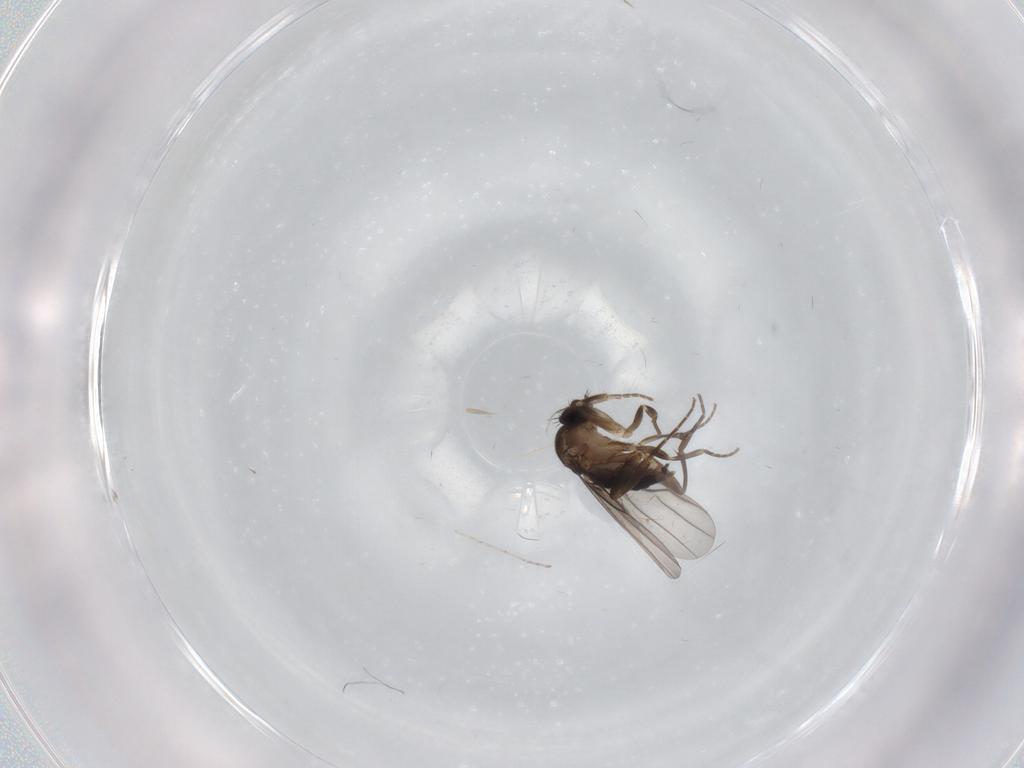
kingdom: Animalia
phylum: Arthropoda
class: Insecta
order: Diptera
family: Cecidomyiidae
